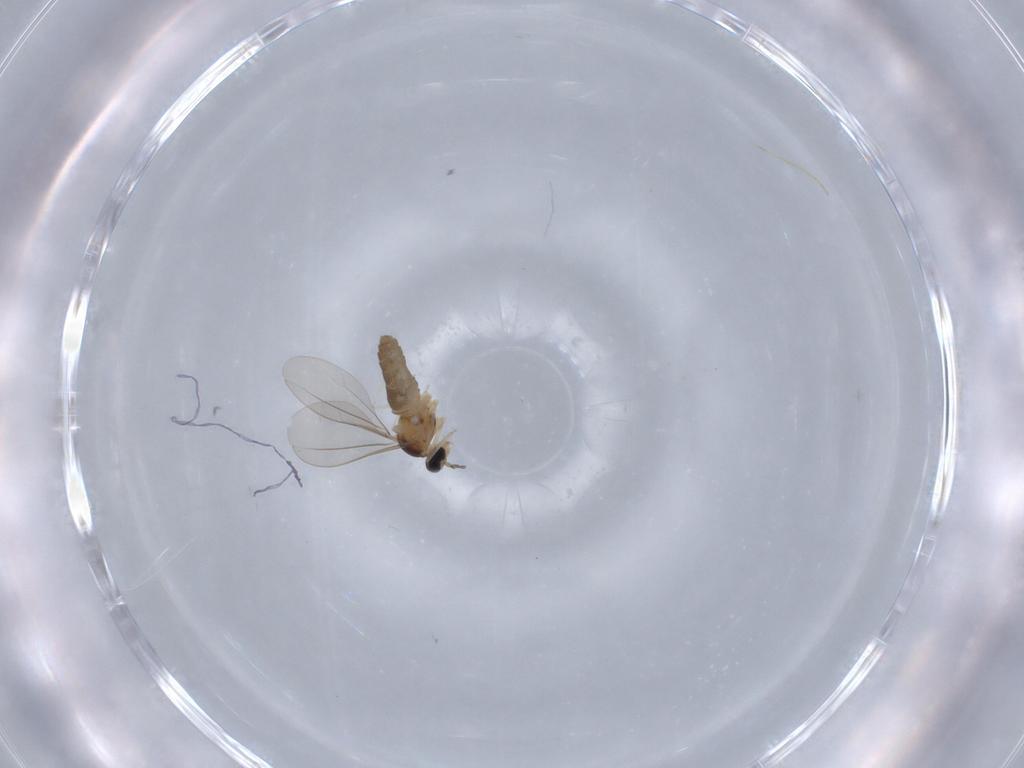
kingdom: Animalia
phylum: Arthropoda
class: Insecta
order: Diptera
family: Cecidomyiidae
